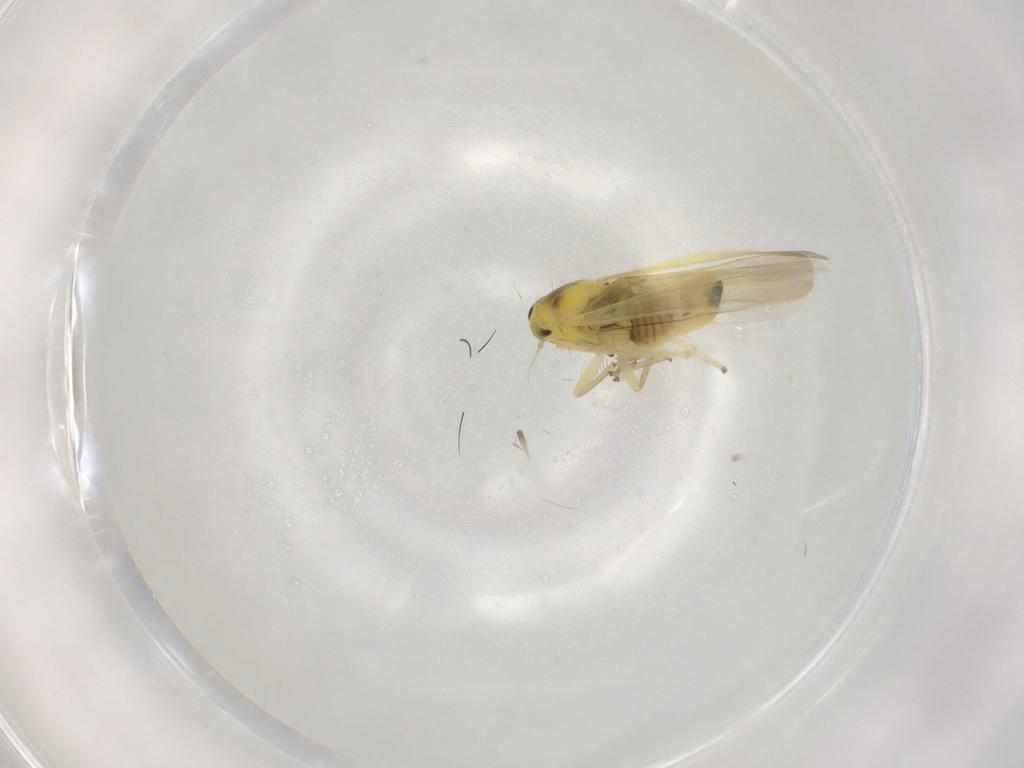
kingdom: Animalia
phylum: Arthropoda
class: Insecta
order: Hemiptera
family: Cicadellidae
